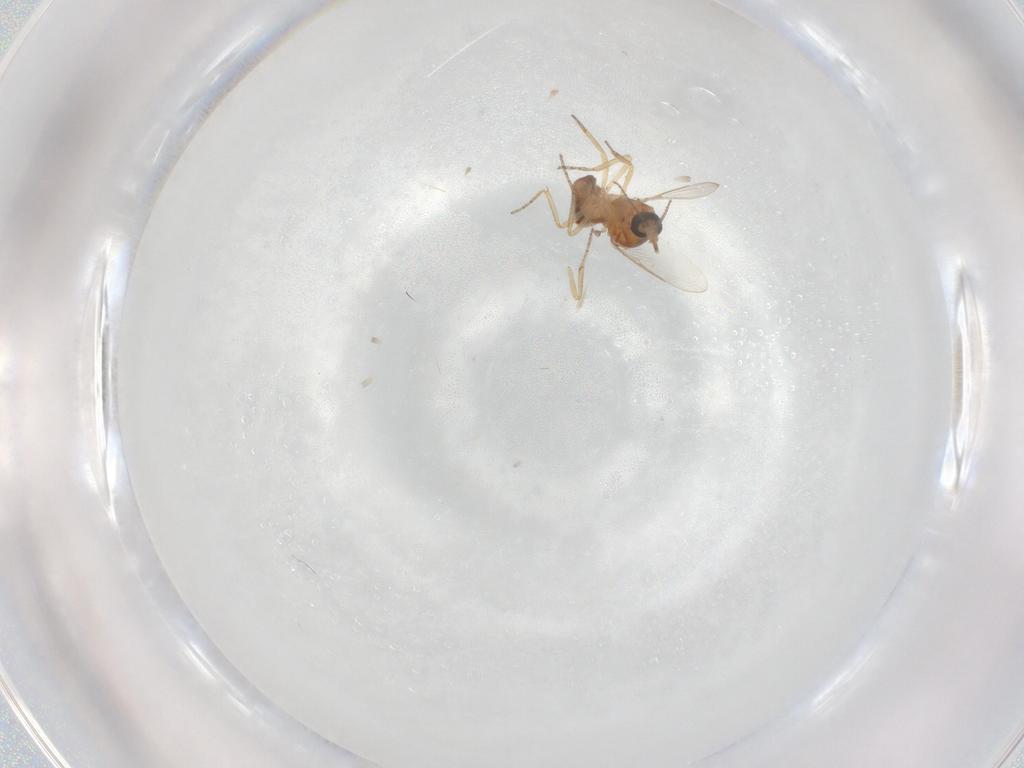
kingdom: Animalia
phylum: Arthropoda
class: Insecta
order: Diptera
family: Ceratopogonidae
